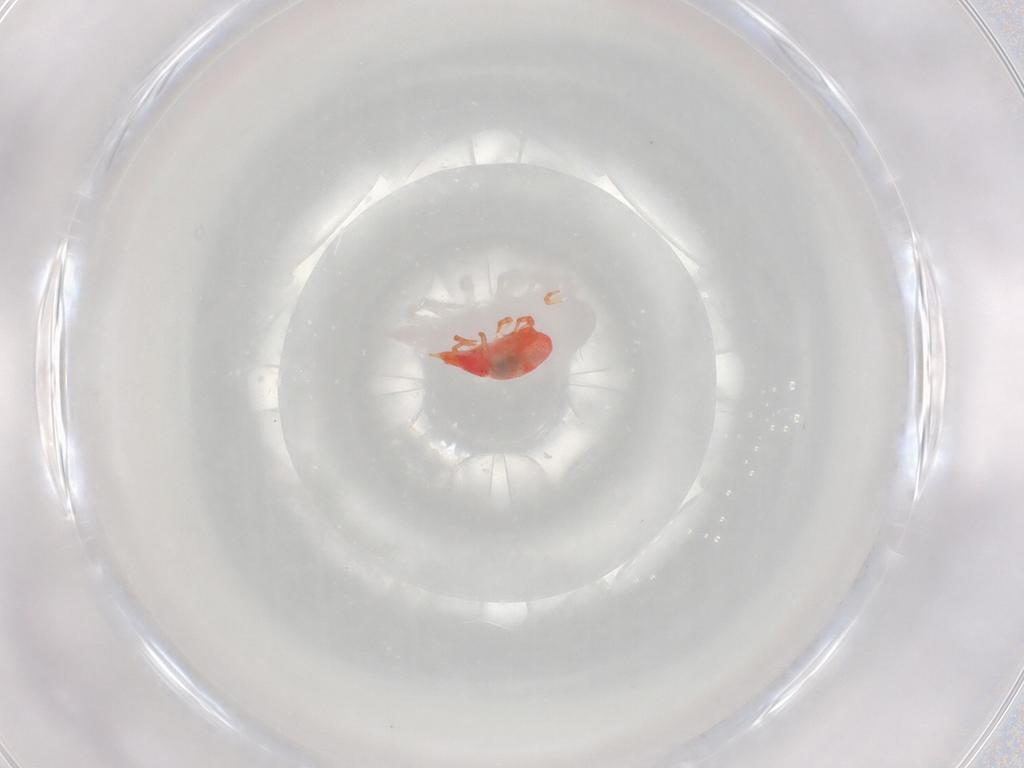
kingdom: Animalia
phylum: Arthropoda
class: Arachnida
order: Trombidiformes
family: Bdellidae
